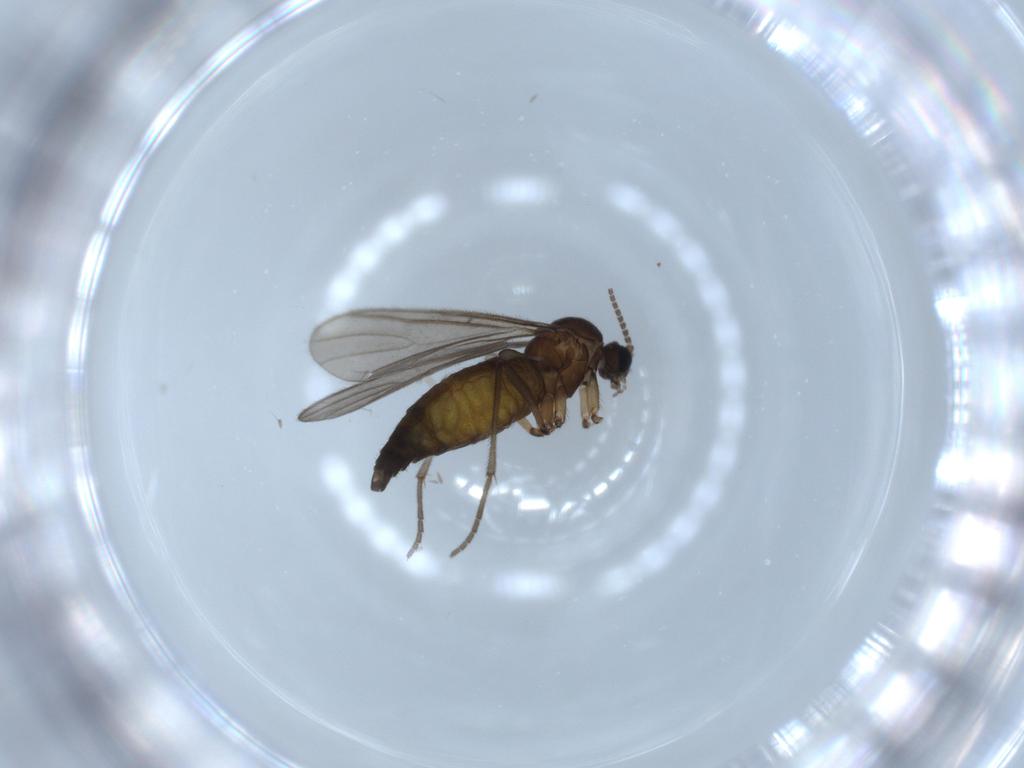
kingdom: Animalia
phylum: Arthropoda
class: Insecta
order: Diptera
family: Sciaridae
